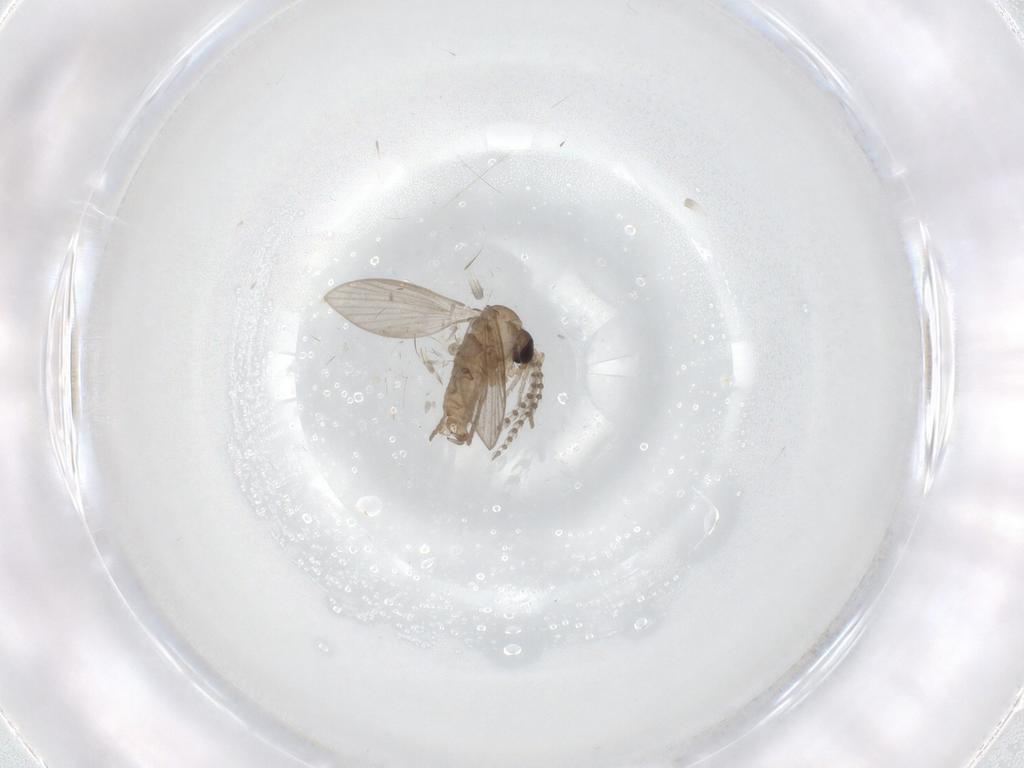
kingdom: Animalia
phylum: Arthropoda
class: Insecta
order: Diptera
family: Psychodidae
